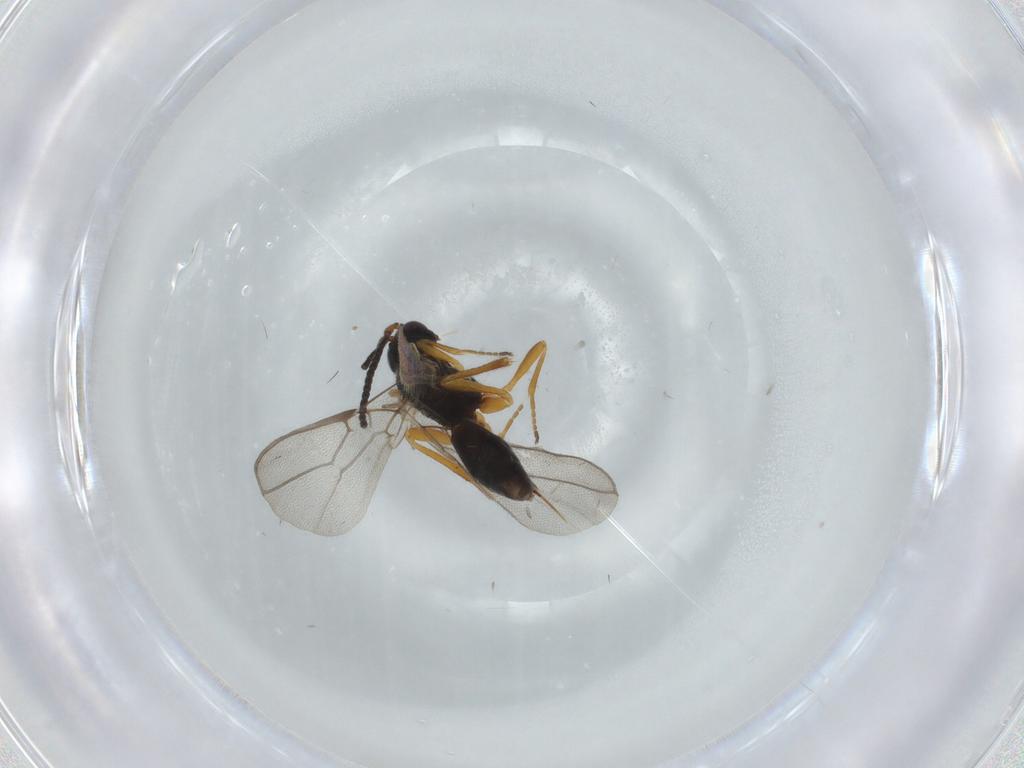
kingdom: Animalia
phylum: Arthropoda
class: Insecta
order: Hymenoptera
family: Braconidae
